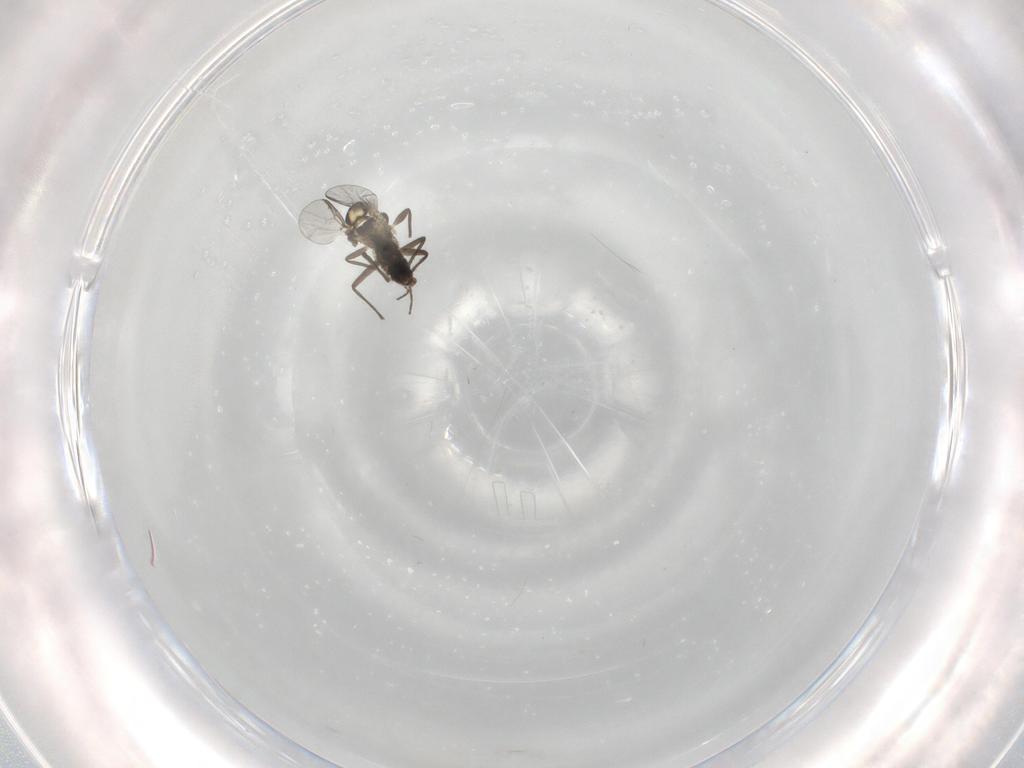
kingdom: Animalia
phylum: Arthropoda
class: Insecta
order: Diptera
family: Chironomidae
